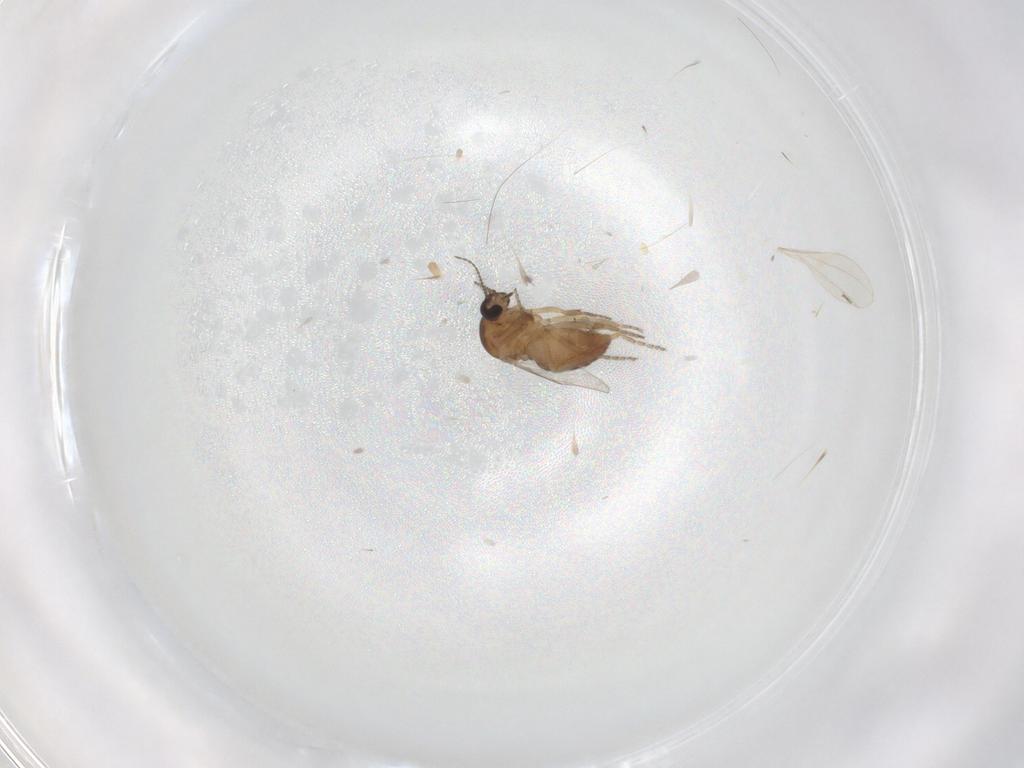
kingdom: Animalia
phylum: Arthropoda
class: Insecta
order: Diptera
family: Ceratopogonidae
